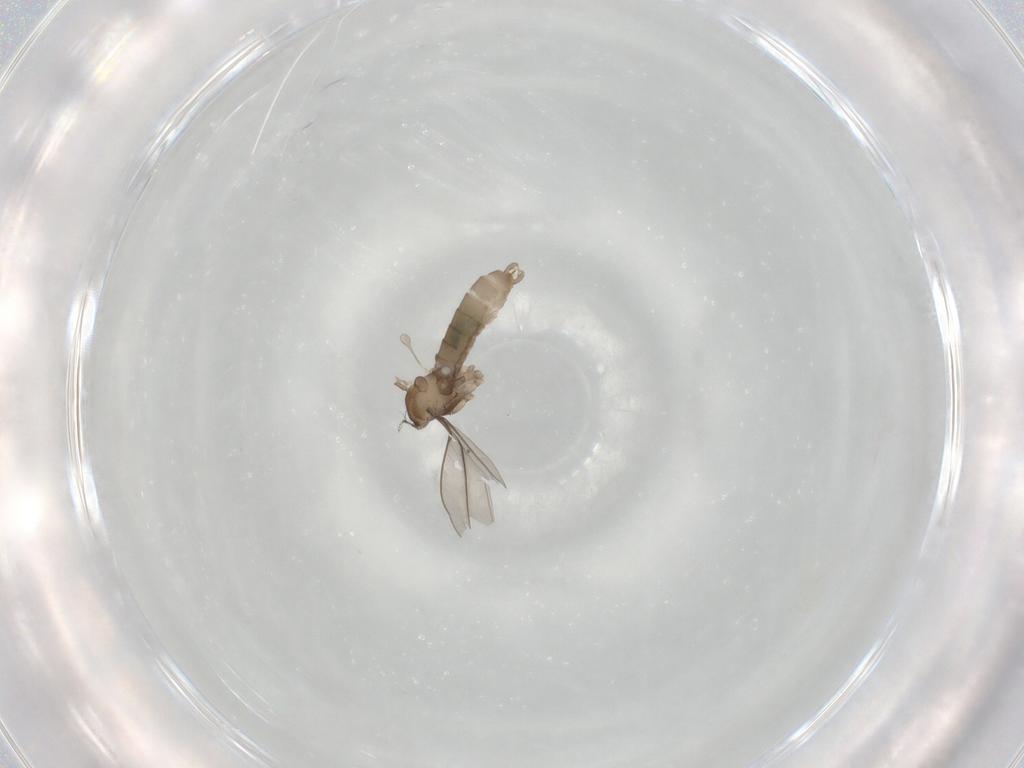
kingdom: Animalia
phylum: Arthropoda
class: Insecta
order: Diptera
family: Cecidomyiidae
